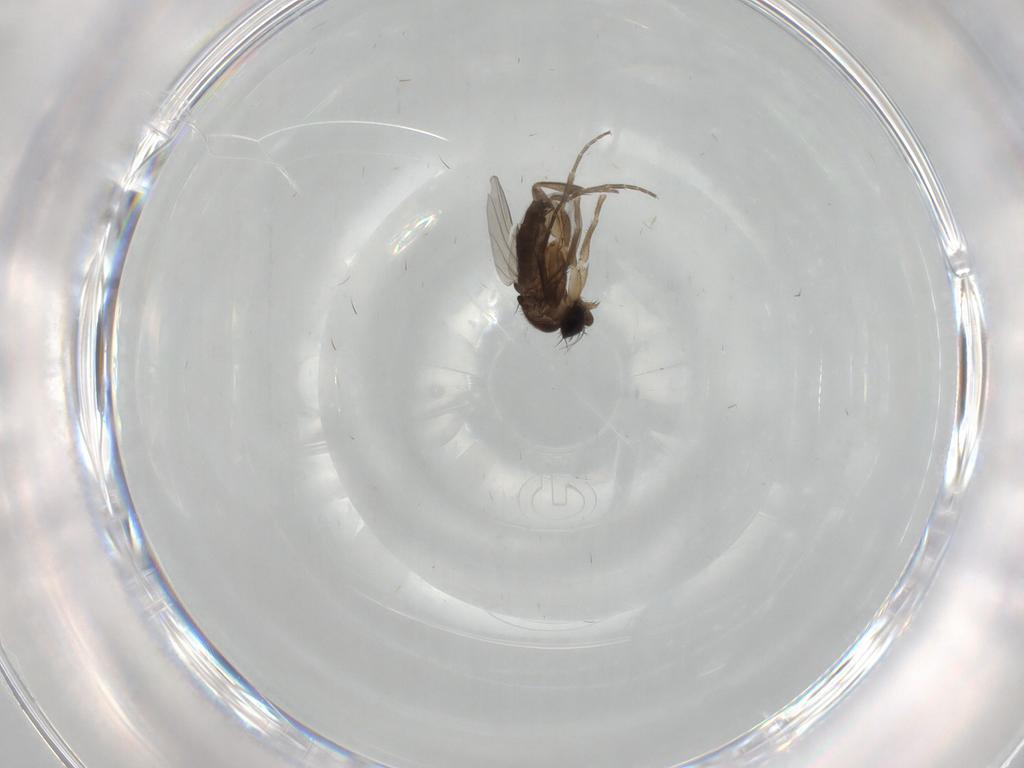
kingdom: Animalia
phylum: Arthropoda
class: Insecta
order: Diptera
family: Phoridae
